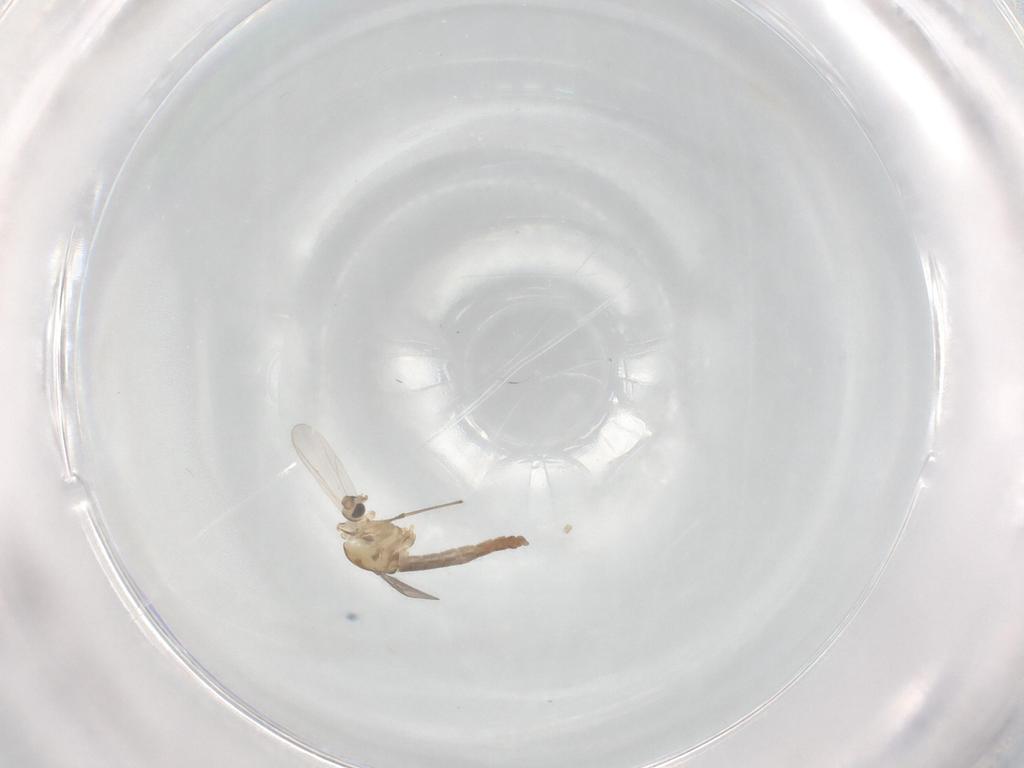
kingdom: Animalia
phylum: Arthropoda
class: Insecta
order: Diptera
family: Chironomidae
